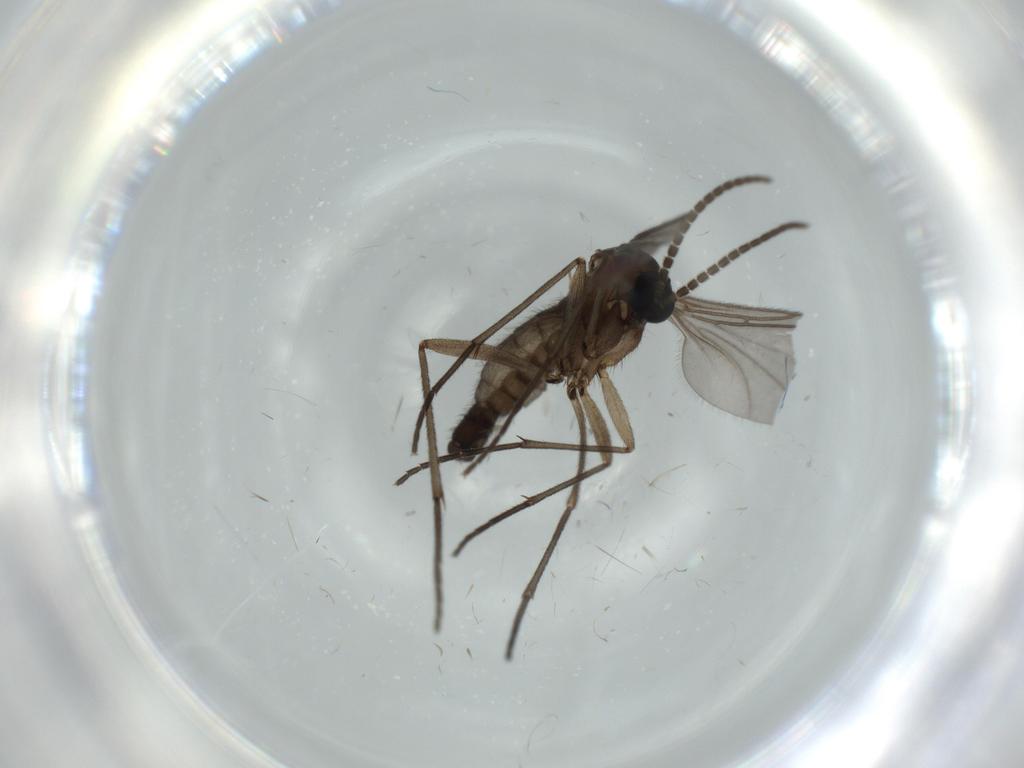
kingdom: Animalia
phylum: Arthropoda
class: Insecta
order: Diptera
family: Sciaridae
